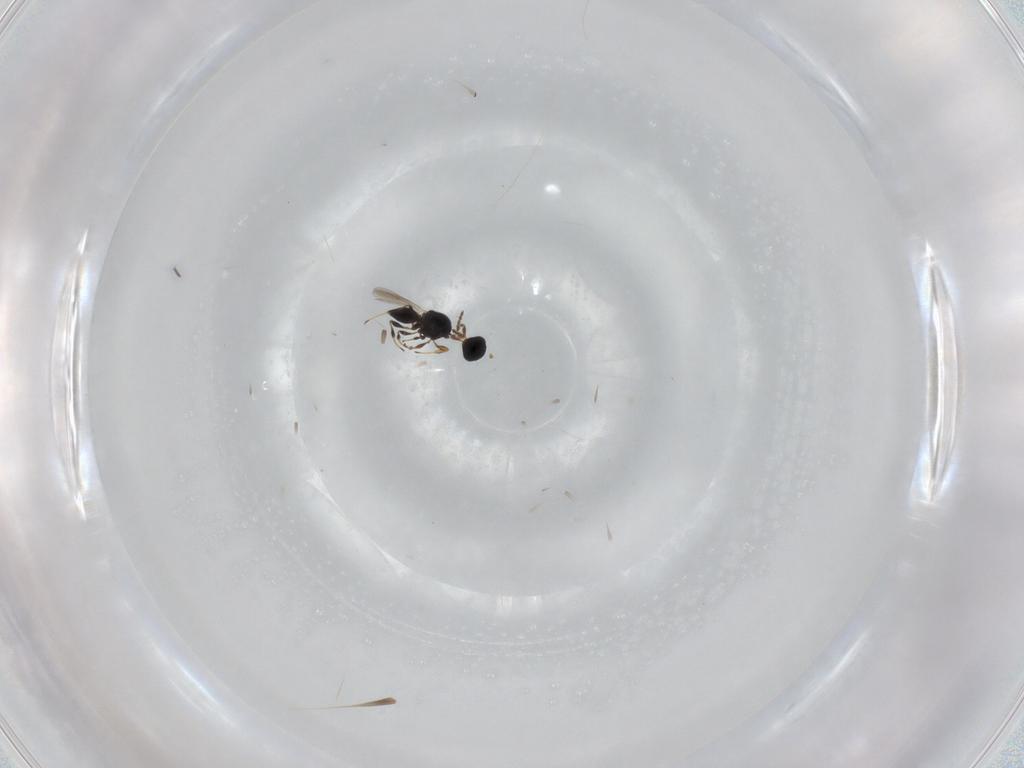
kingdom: Animalia
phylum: Arthropoda
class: Insecta
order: Hymenoptera
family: Platygastridae
